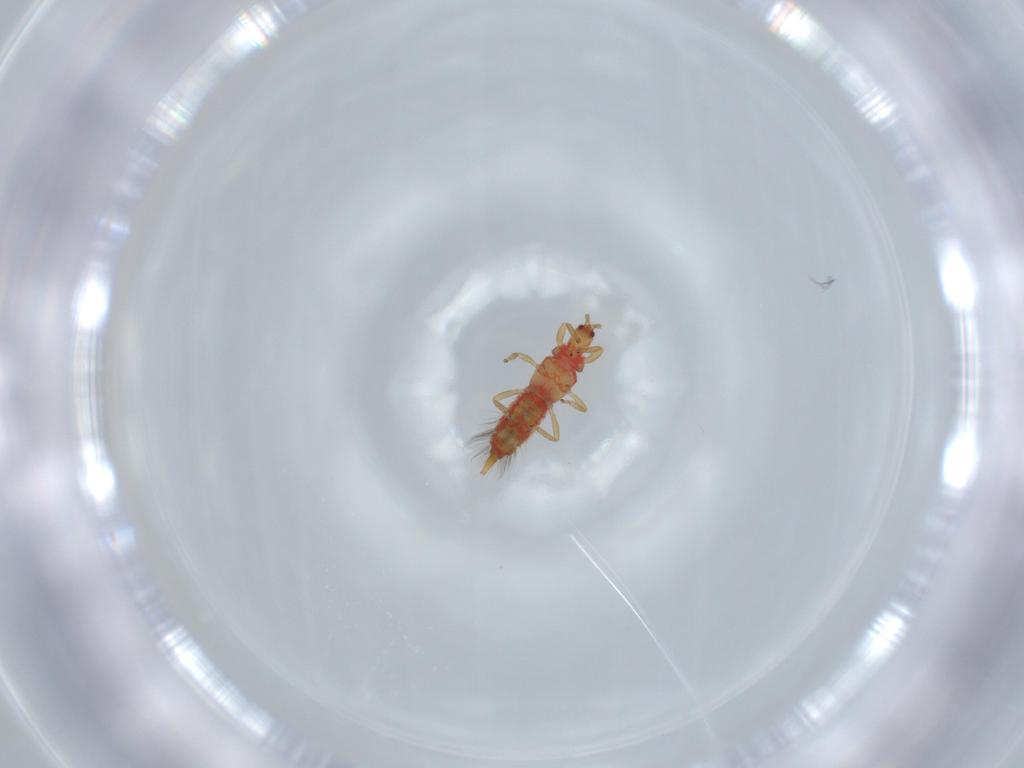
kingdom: Animalia
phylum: Arthropoda
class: Insecta
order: Thysanoptera
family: Phlaeothripidae
